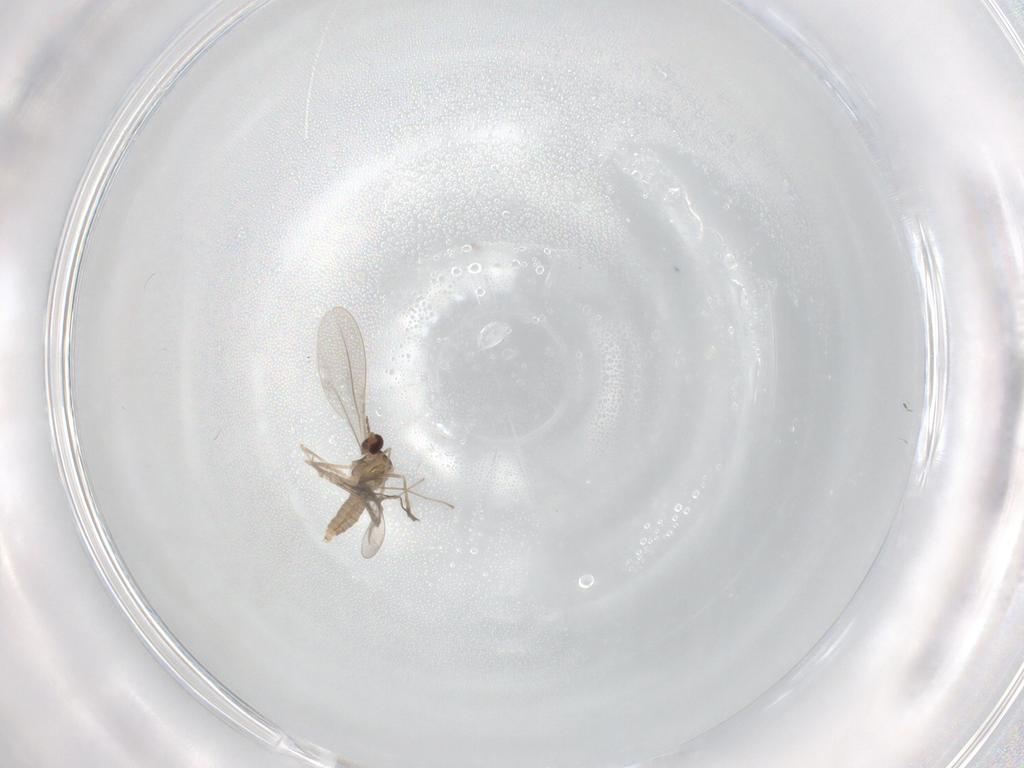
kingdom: Animalia
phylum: Arthropoda
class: Insecta
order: Diptera
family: Cecidomyiidae
